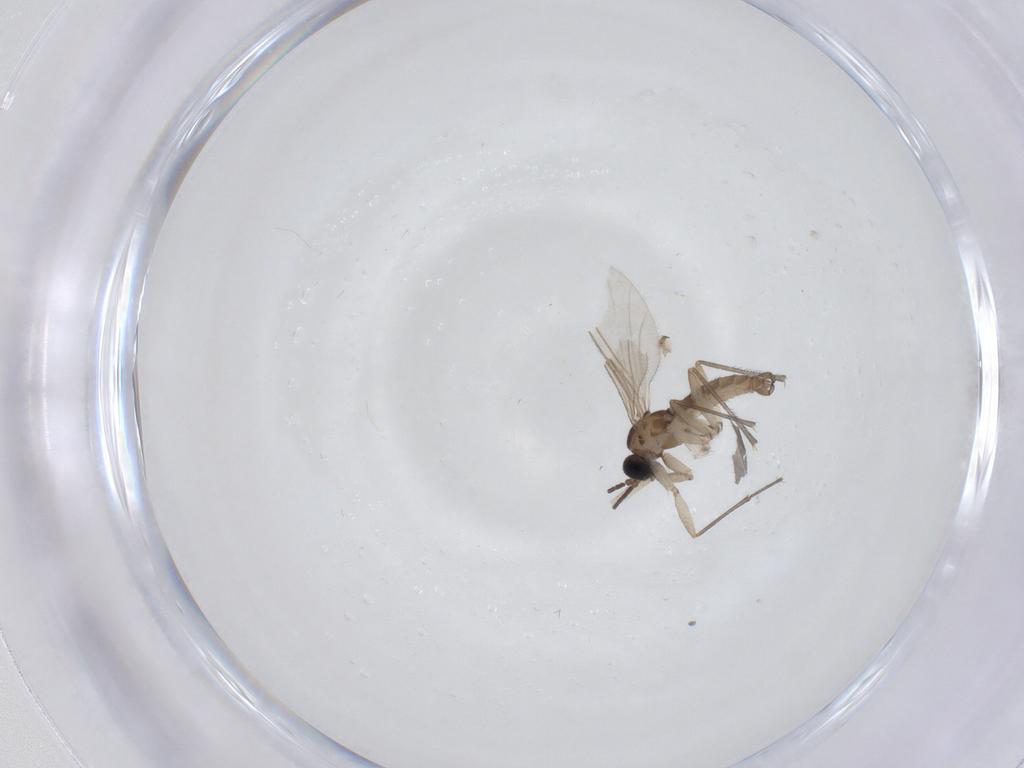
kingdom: Animalia
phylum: Arthropoda
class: Insecta
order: Diptera
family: Cecidomyiidae
